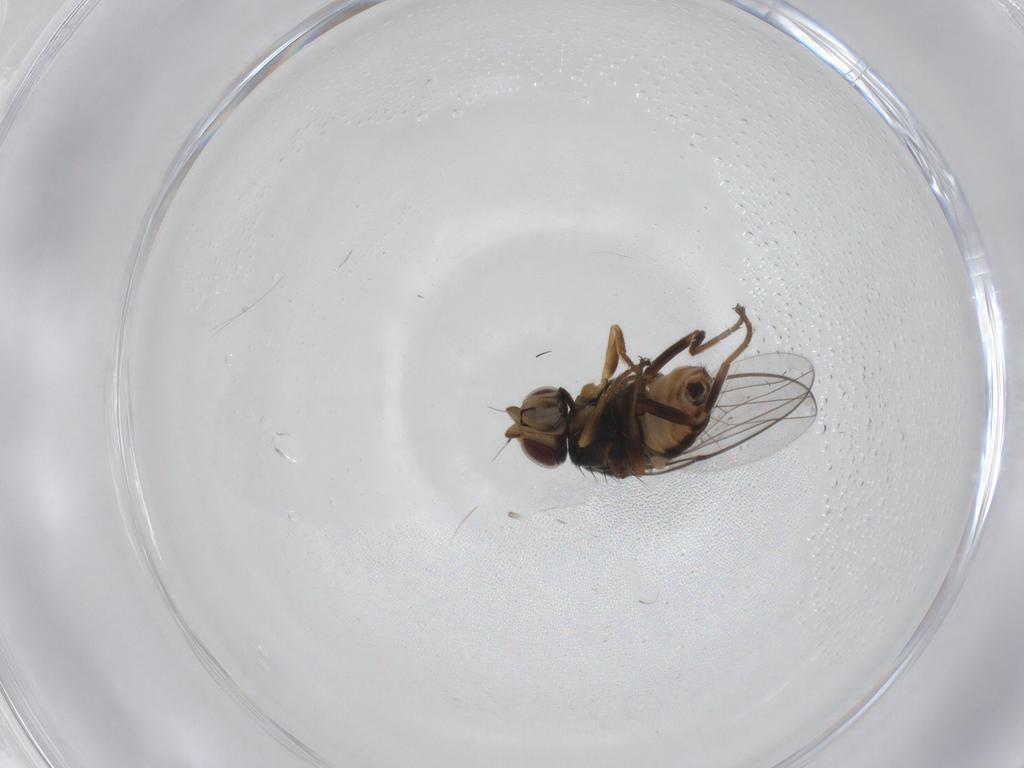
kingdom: Animalia
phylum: Arthropoda
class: Insecta
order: Diptera
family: Chloropidae
